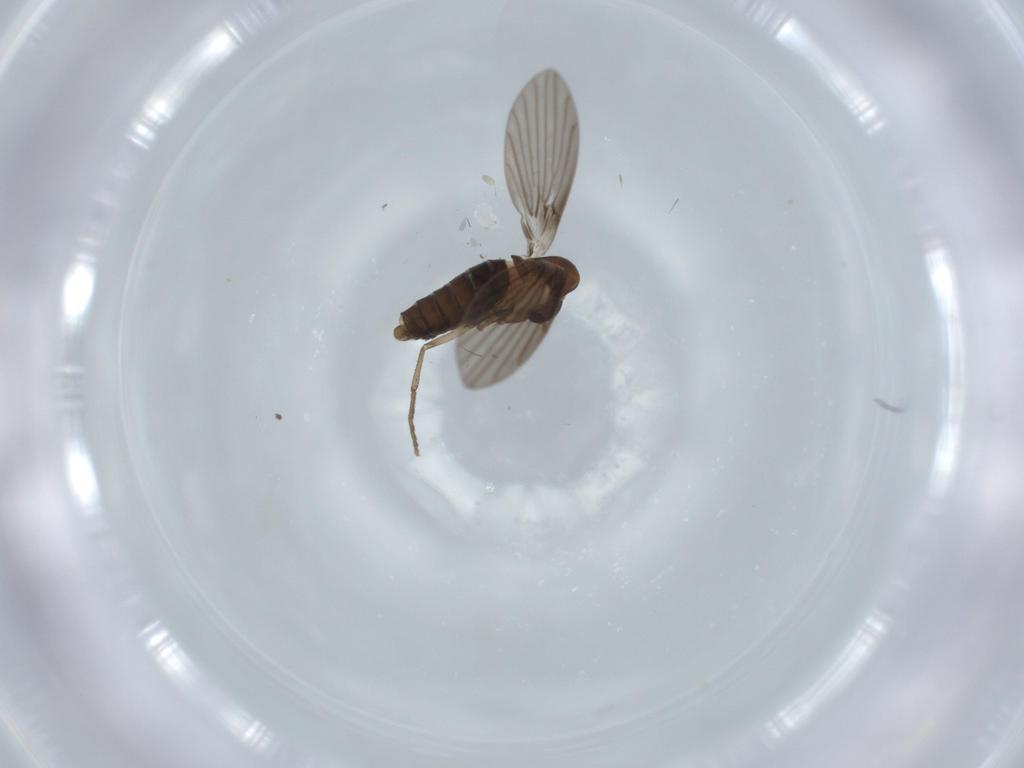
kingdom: Animalia
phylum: Arthropoda
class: Insecta
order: Diptera
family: Psychodidae
